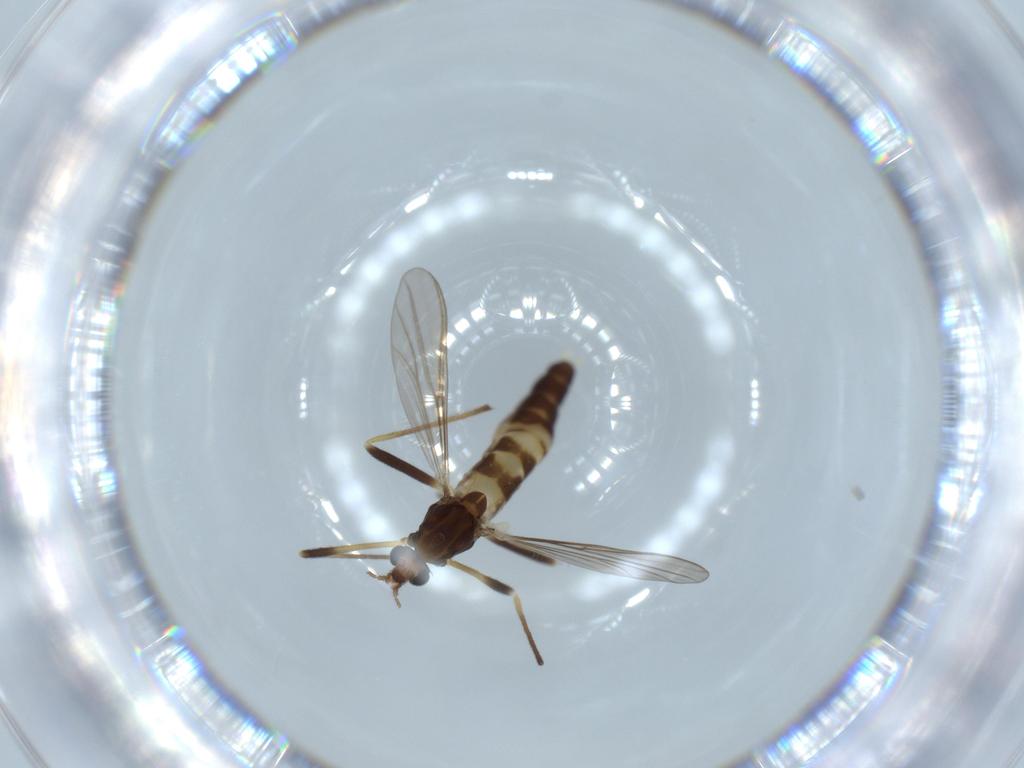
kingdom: Animalia
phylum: Arthropoda
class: Insecta
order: Diptera
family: Chironomidae
